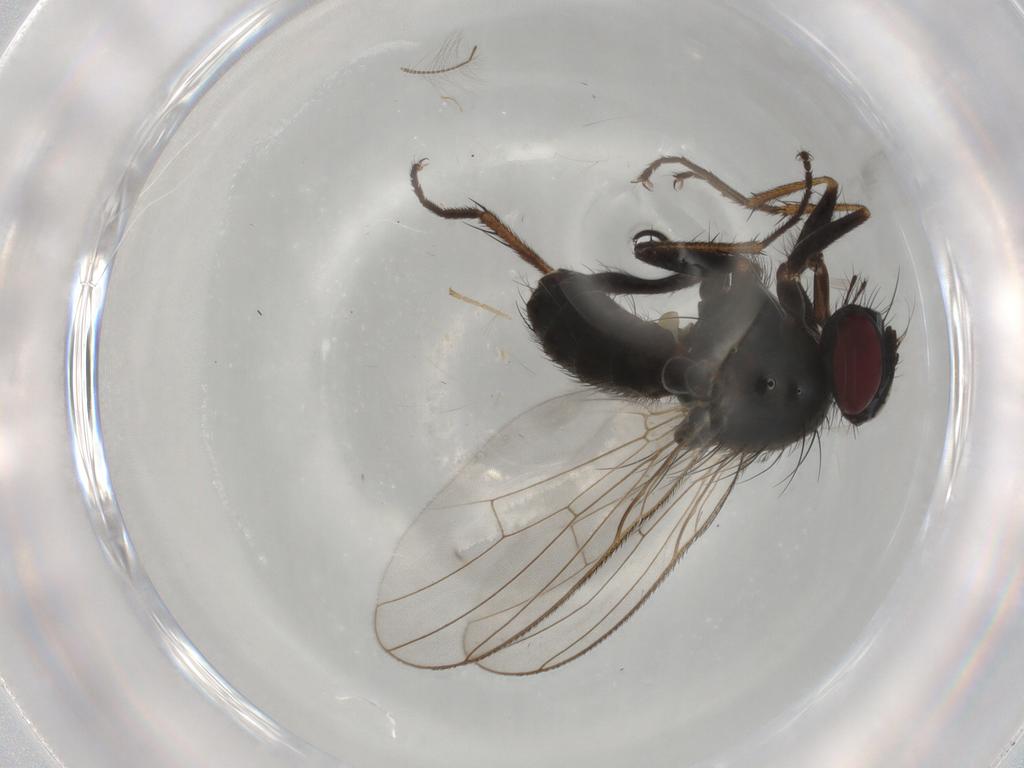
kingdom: Animalia
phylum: Arthropoda
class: Insecta
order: Diptera
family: Muscidae
